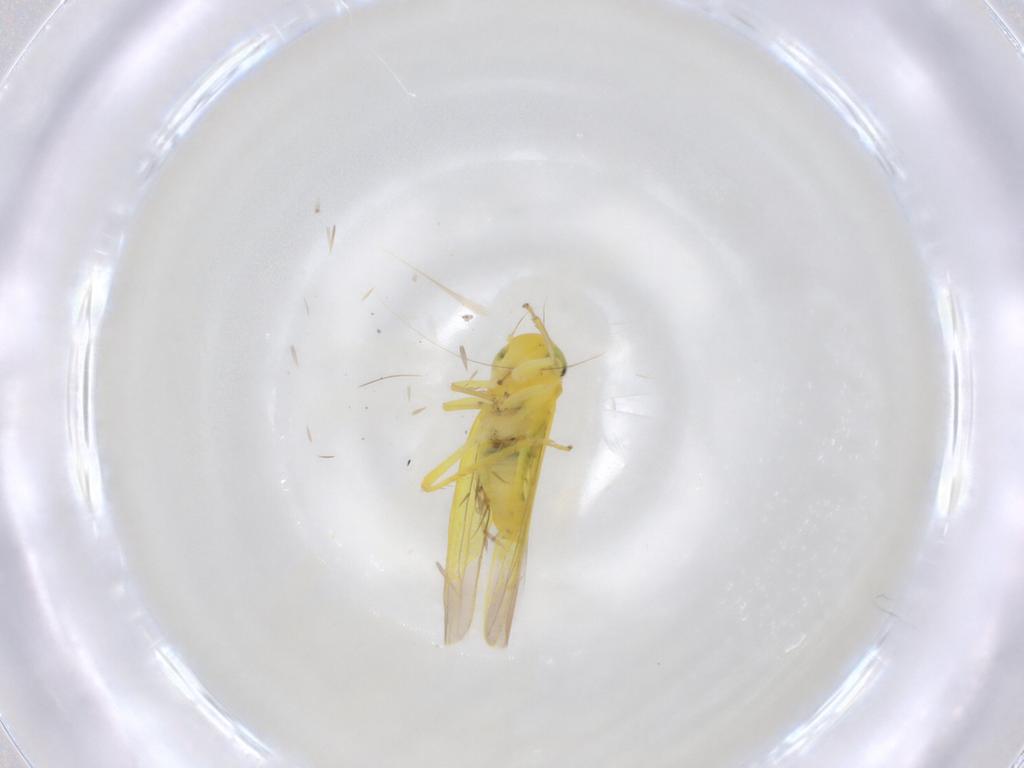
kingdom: Animalia
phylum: Arthropoda
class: Insecta
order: Hemiptera
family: Cicadellidae
